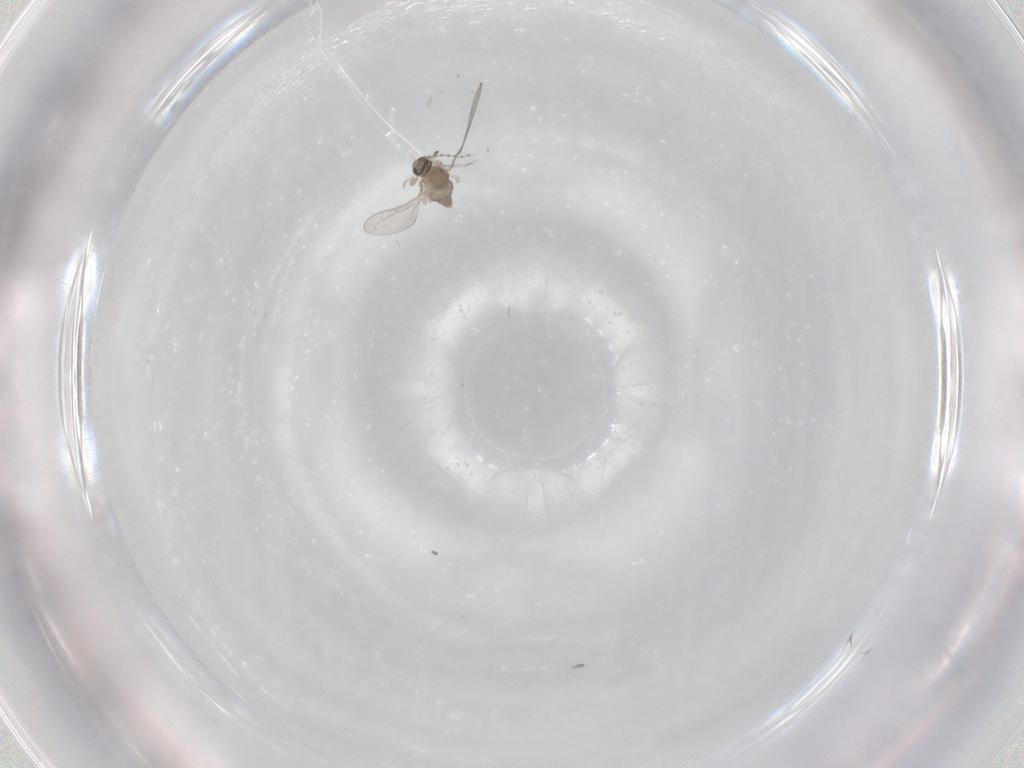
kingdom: Animalia
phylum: Arthropoda
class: Insecta
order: Diptera
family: Cecidomyiidae
